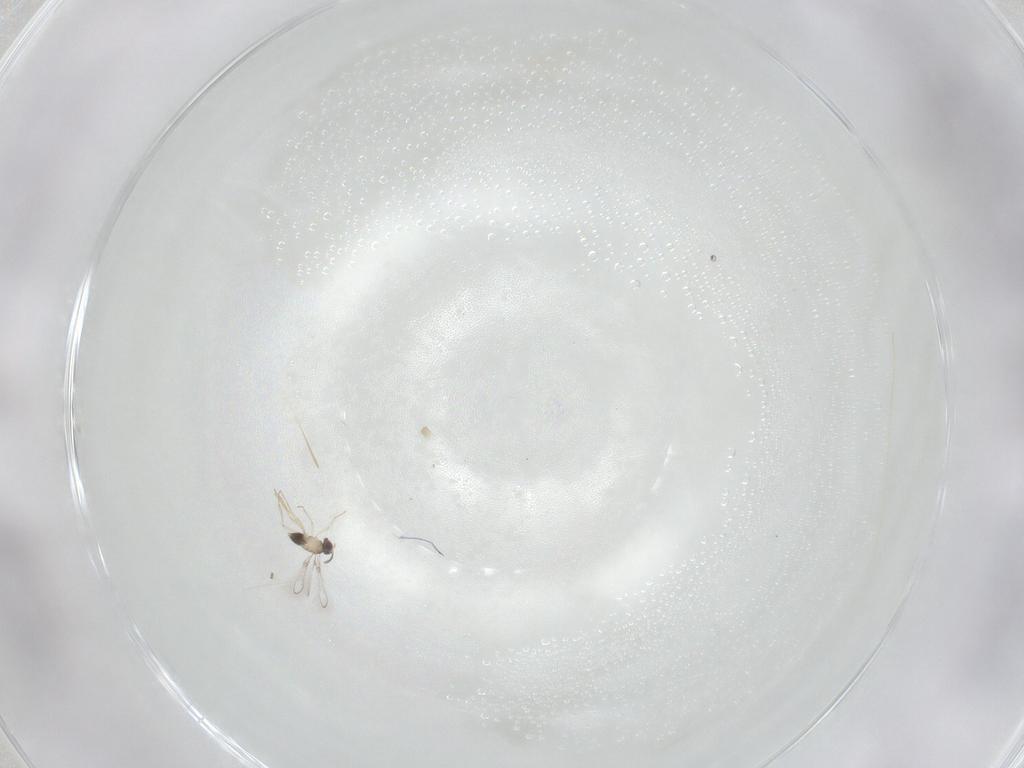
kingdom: Animalia
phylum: Arthropoda
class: Insecta
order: Hymenoptera
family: Mymaridae
